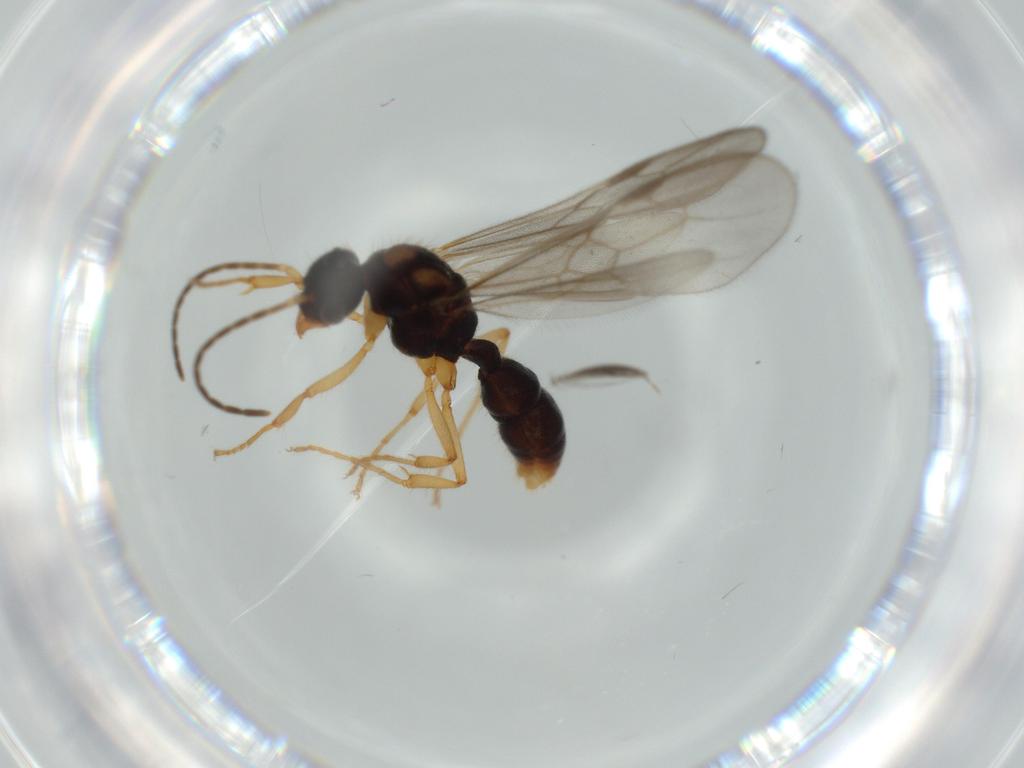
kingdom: Animalia
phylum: Arthropoda
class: Insecta
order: Hymenoptera
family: Formicidae
